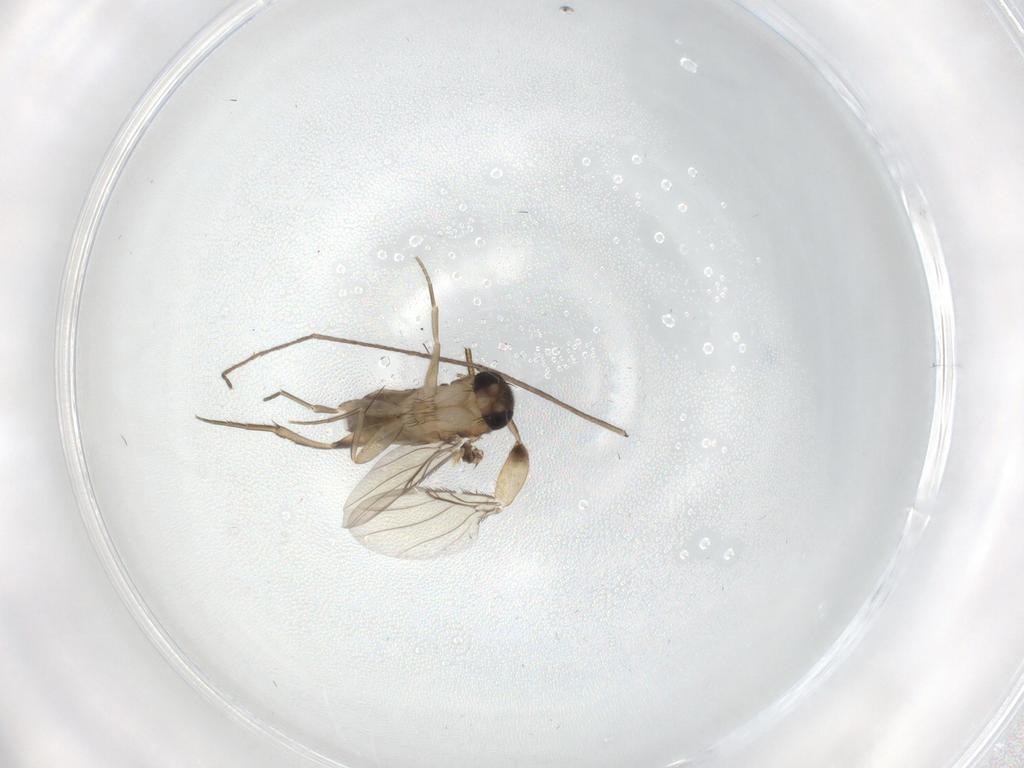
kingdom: Animalia
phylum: Arthropoda
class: Insecta
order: Diptera
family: Phoridae
